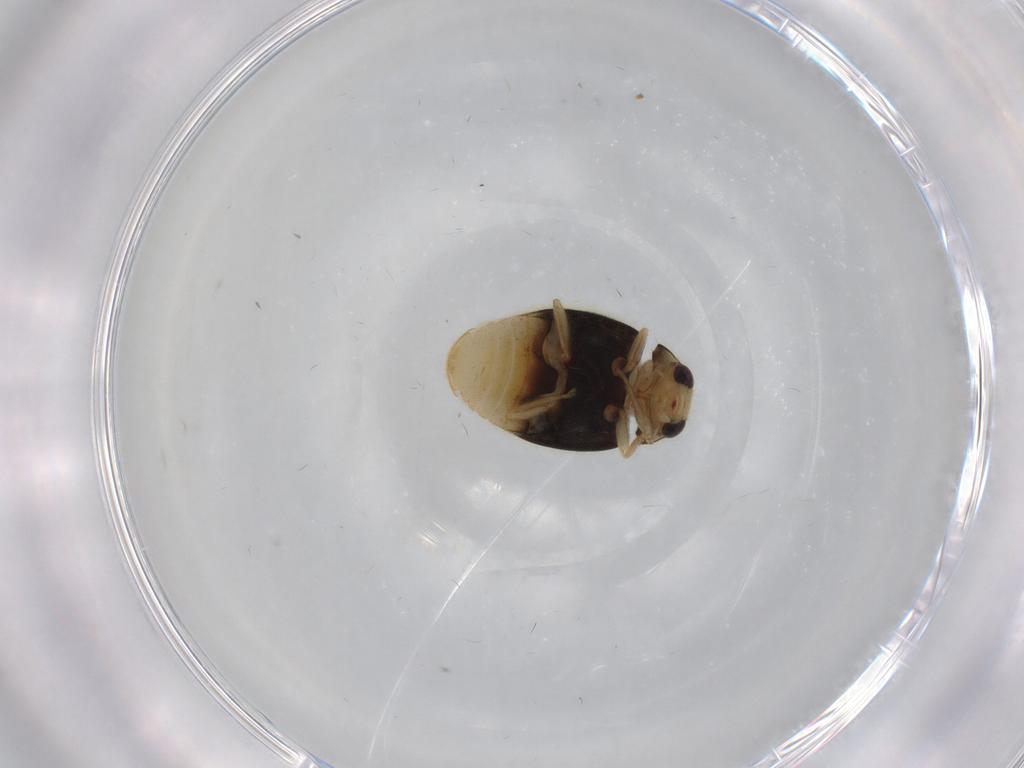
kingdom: Animalia
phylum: Arthropoda
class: Insecta
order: Coleoptera
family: Coccinellidae
